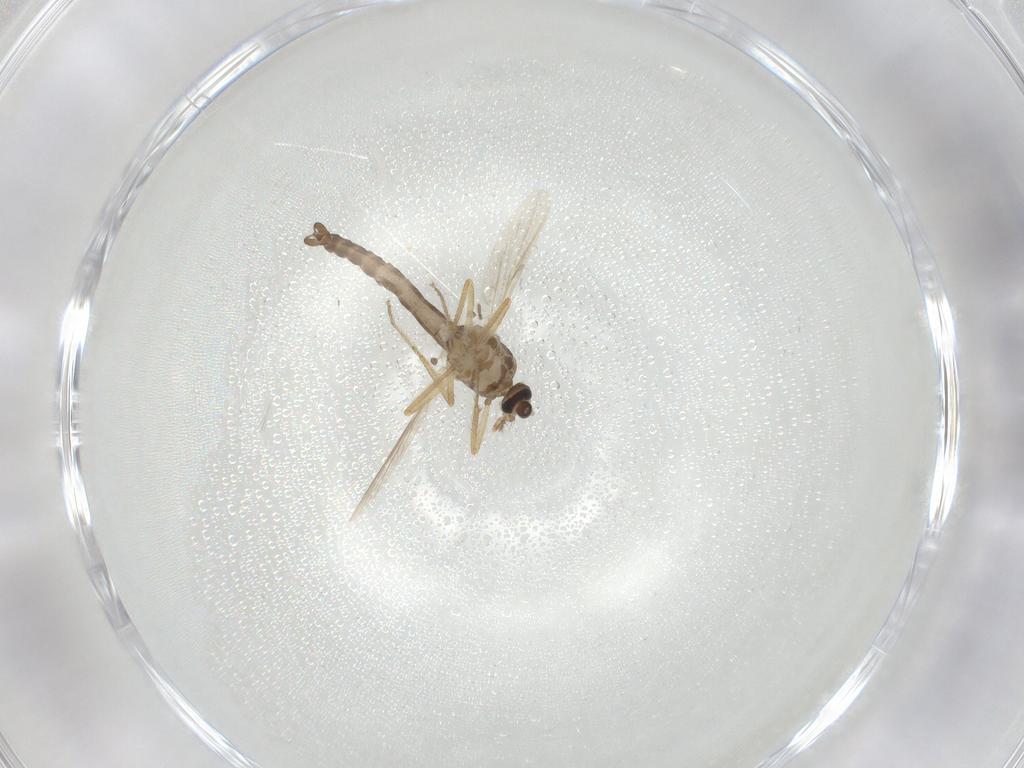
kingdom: Animalia
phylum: Arthropoda
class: Insecta
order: Diptera
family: Ceratopogonidae
